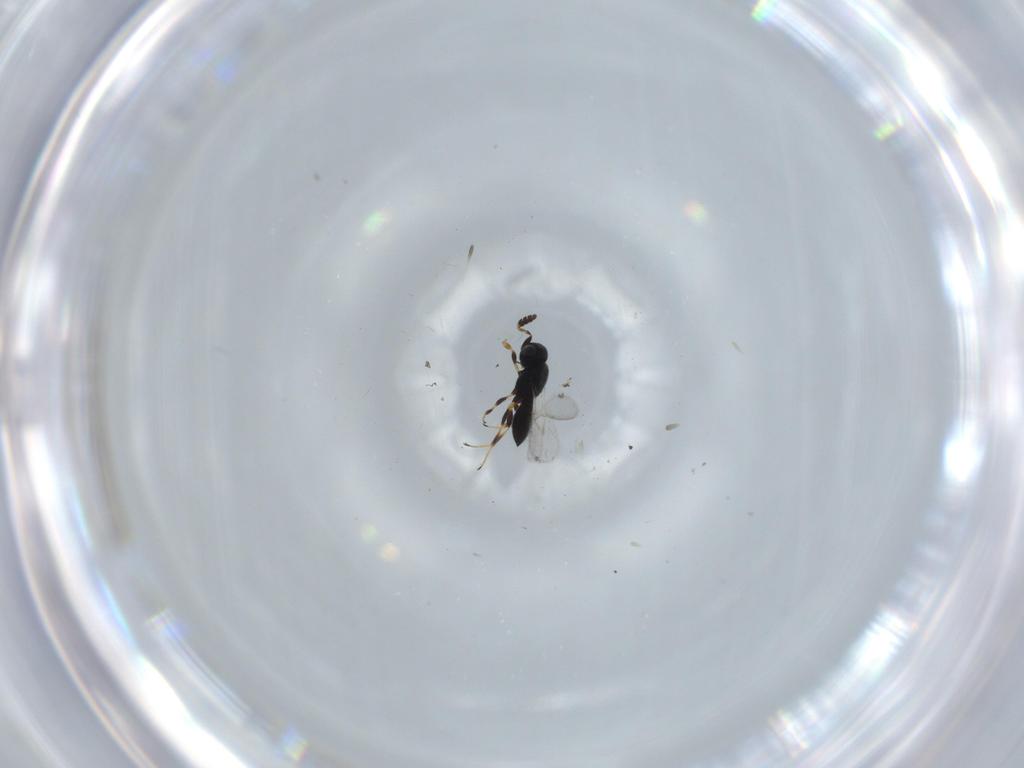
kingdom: Animalia
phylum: Arthropoda
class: Insecta
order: Hymenoptera
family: Scelionidae
